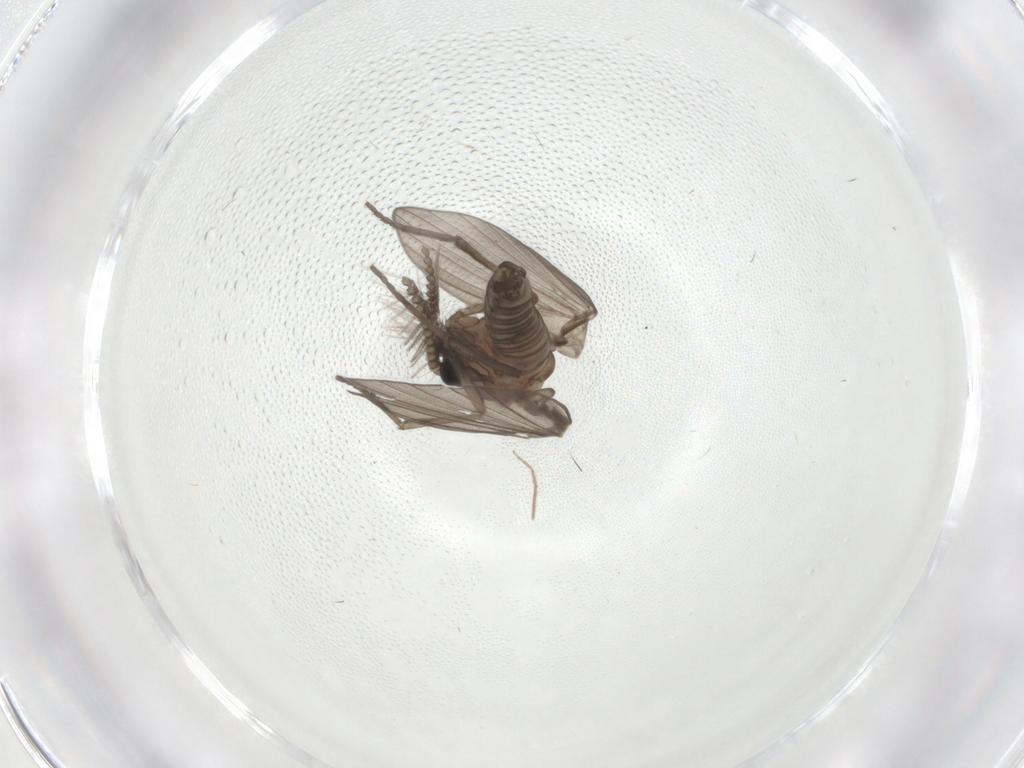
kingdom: Animalia
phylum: Arthropoda
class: Insecta
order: Diptera
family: Psychodidae
